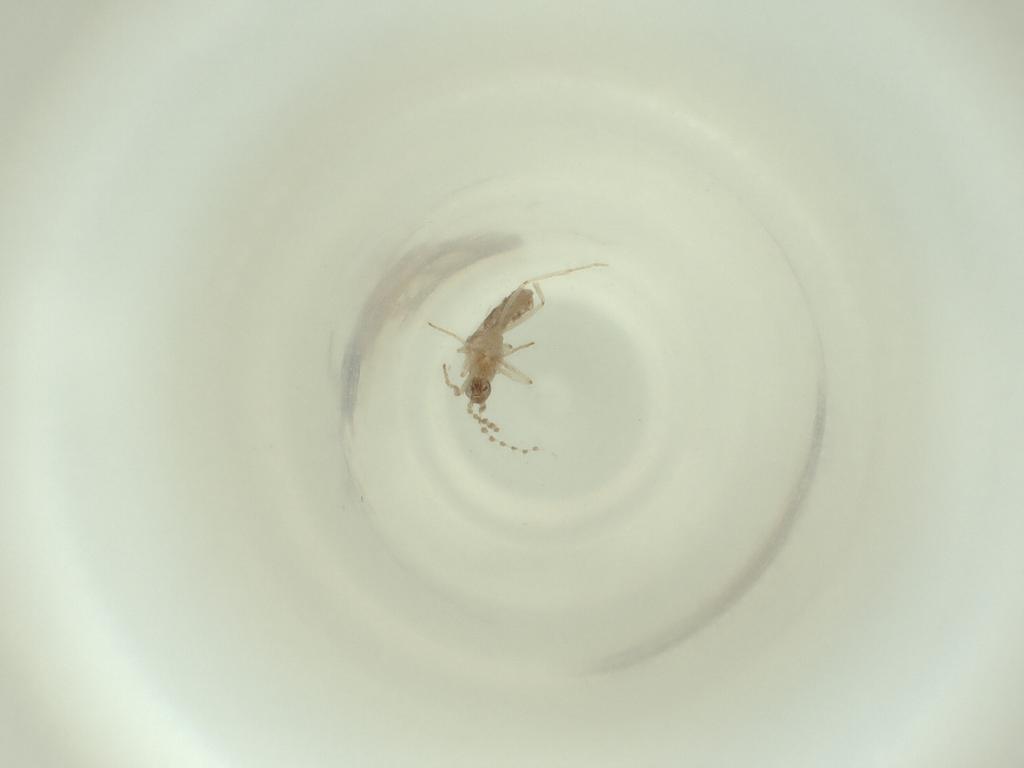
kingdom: Animalia
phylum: Arthropoda
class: Insecta
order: Diptera
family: Cecidomyiidae
